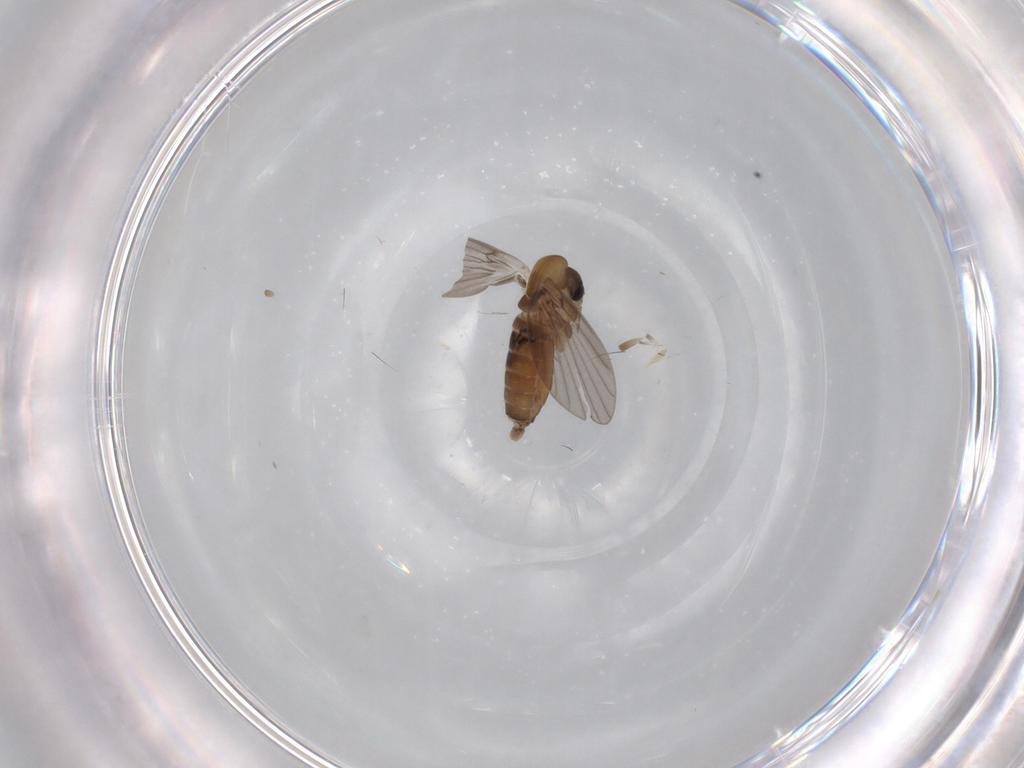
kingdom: Animalia
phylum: Arthropoda
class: Insecta
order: Diptera
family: Cecidomyiidae
